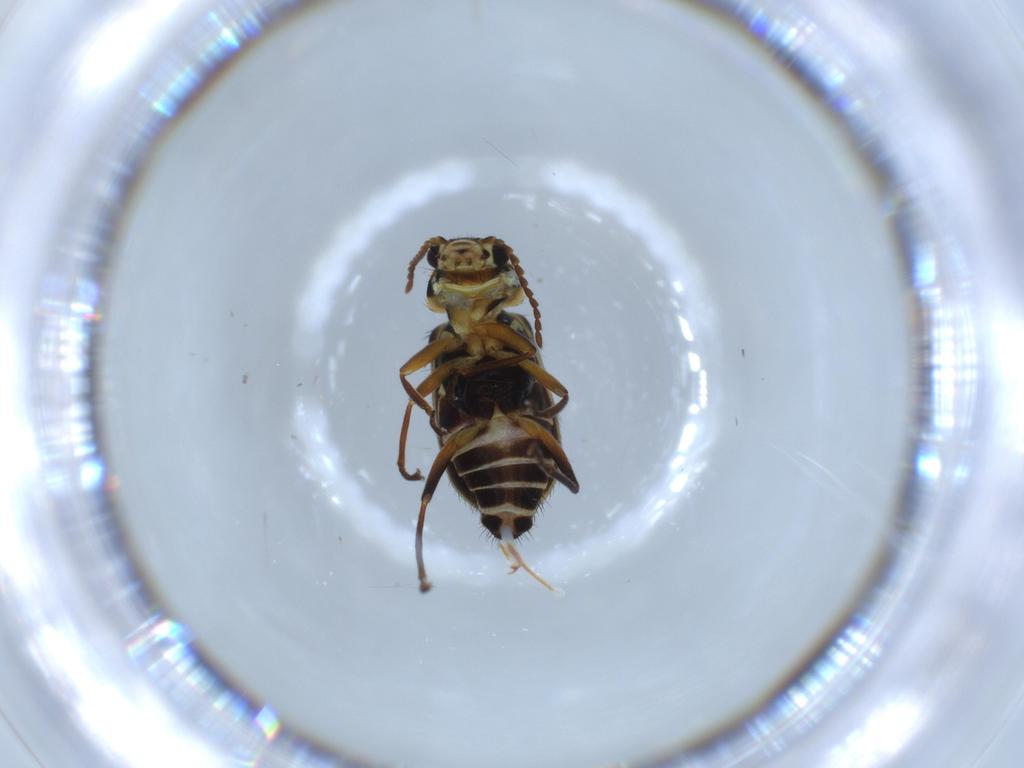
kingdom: Animalia
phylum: Arthropoda
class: Insecta
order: Coleoptera
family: Melyridae
